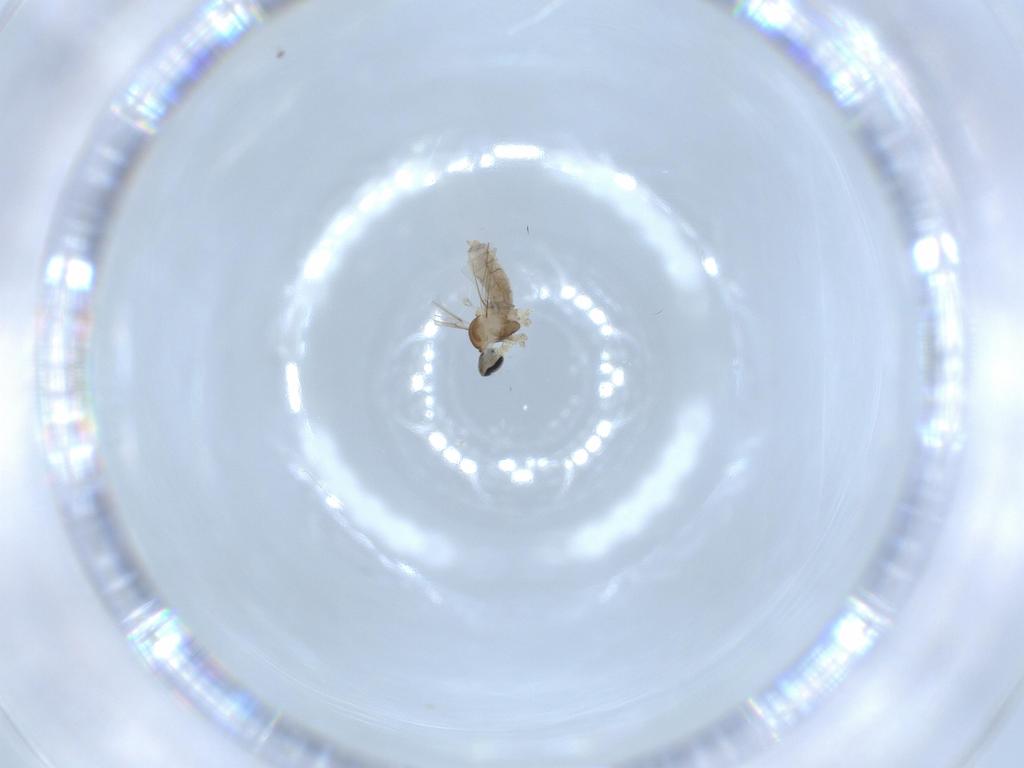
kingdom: Animalia
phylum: Arthropoda
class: Insecta
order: Diptera
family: Cecidomyiidae
